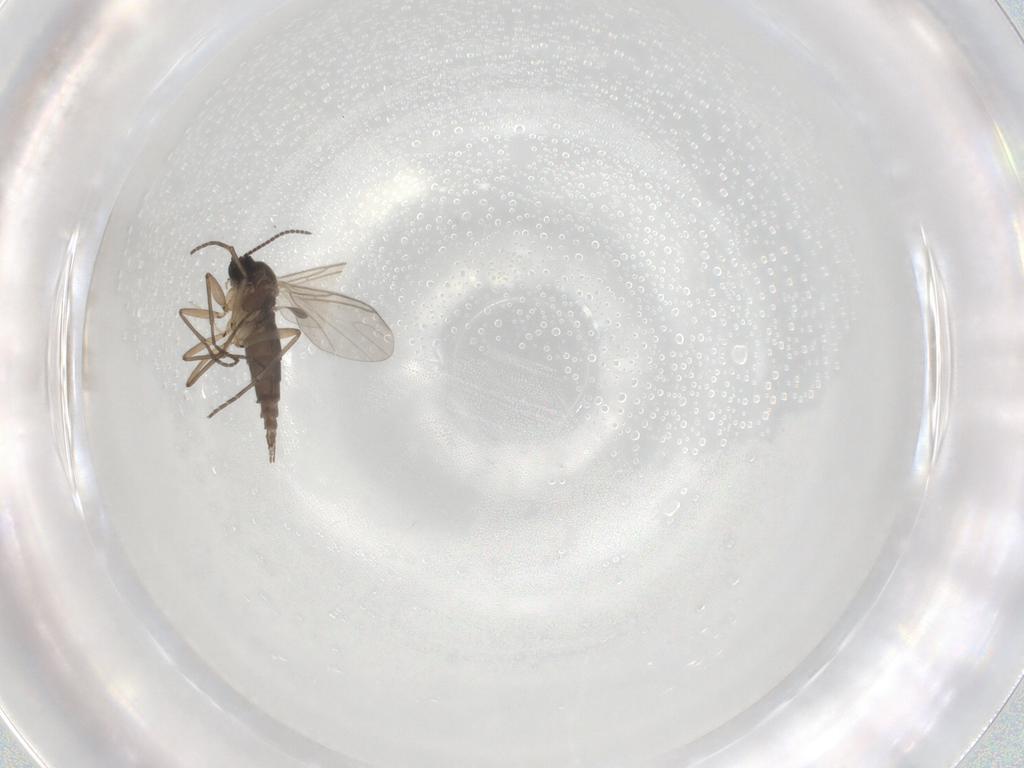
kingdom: Animalia
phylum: Arthropoda
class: Insecta
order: Diptera
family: Sciaridae
